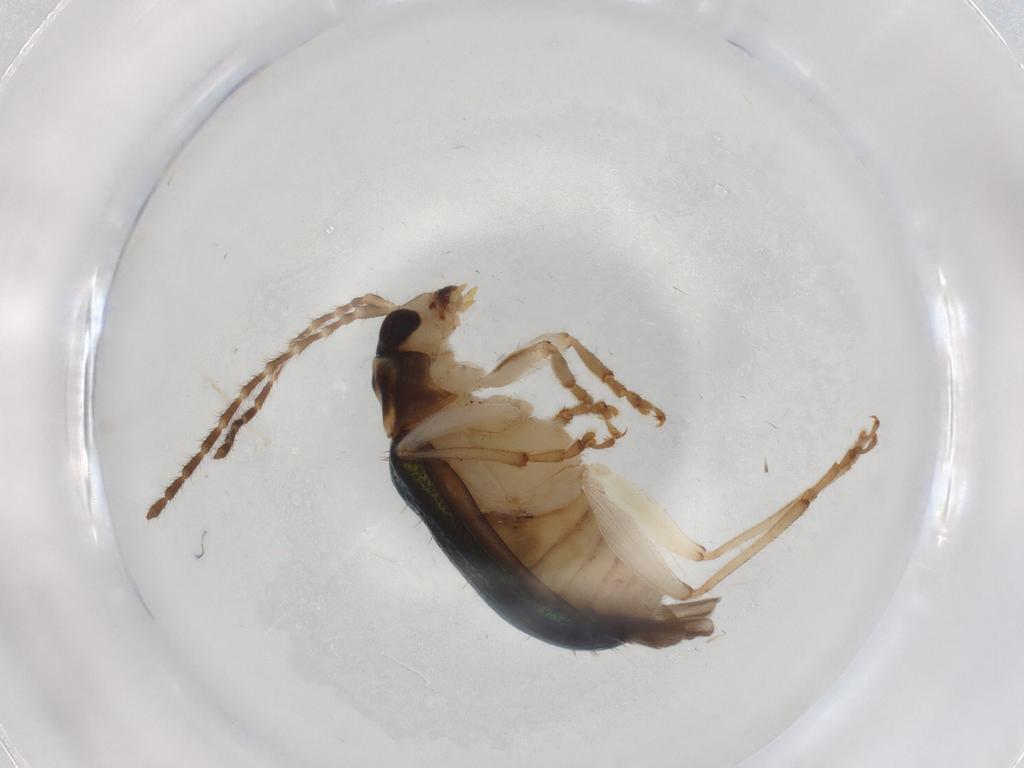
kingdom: Animalia
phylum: Arthropoda
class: Insecta
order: Coleoptera
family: Chrysomelidae
